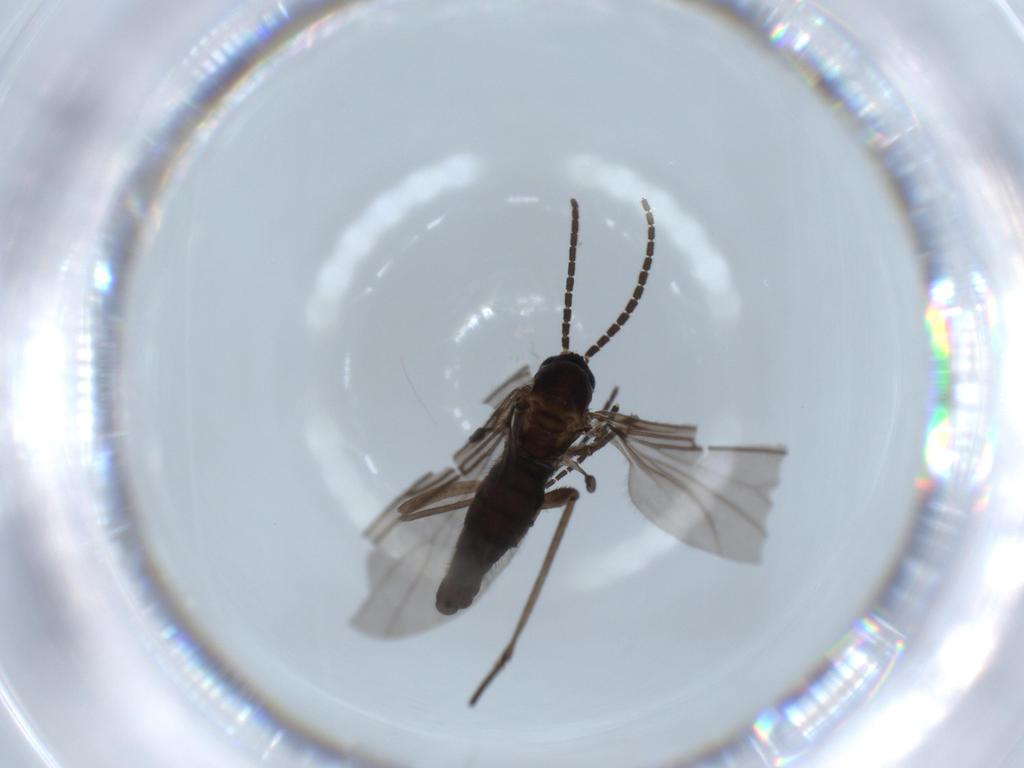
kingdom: Animalia
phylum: Arthropoda
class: Insecta
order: Diptera
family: Sciaridae
